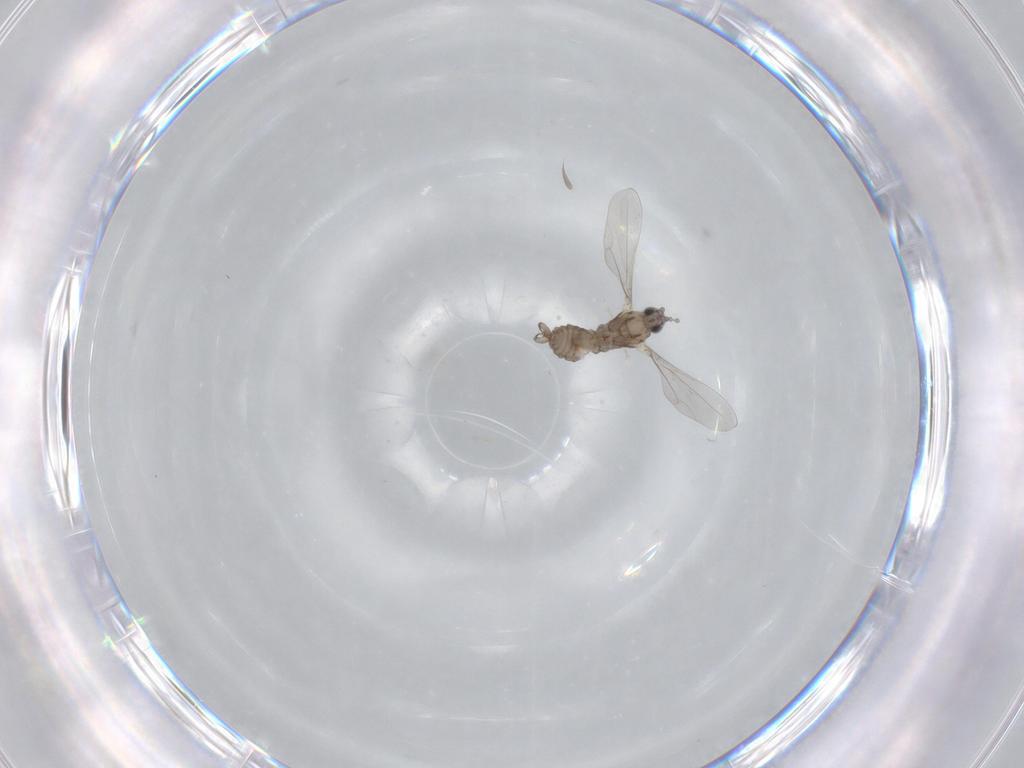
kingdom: Animalia
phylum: Arthropoda
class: Insecta
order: Diptera
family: Cecidomyiidae
